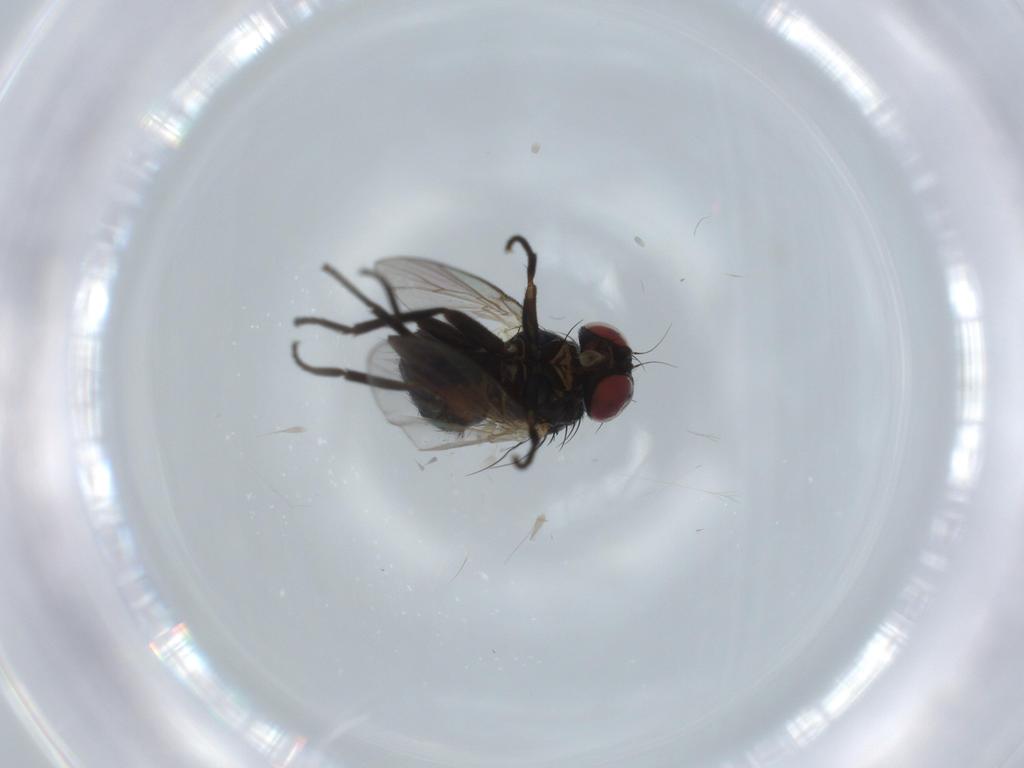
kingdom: Animalia
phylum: Arthropoda
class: Insecta
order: Diptera
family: Agromyzidae
